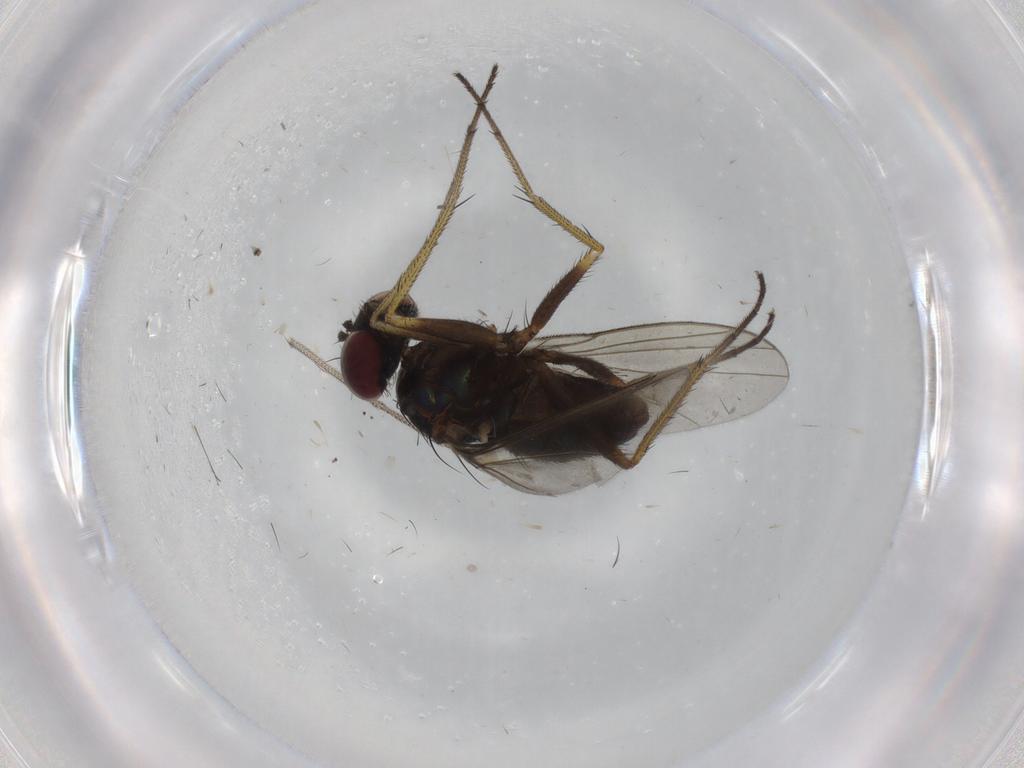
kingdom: Animalia
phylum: Arthropoda
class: Insecta
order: Diptera
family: Dolichopodidae
